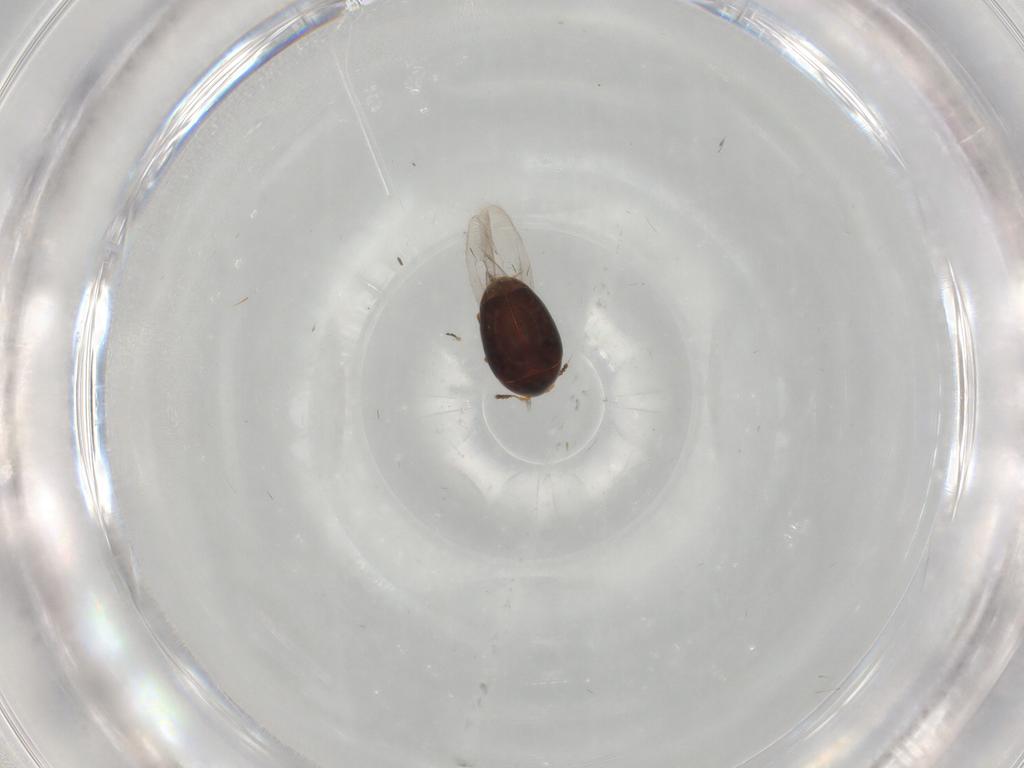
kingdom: Animalia
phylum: Arthropoda
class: Insecta
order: Coleoptera
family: Corylophidae
